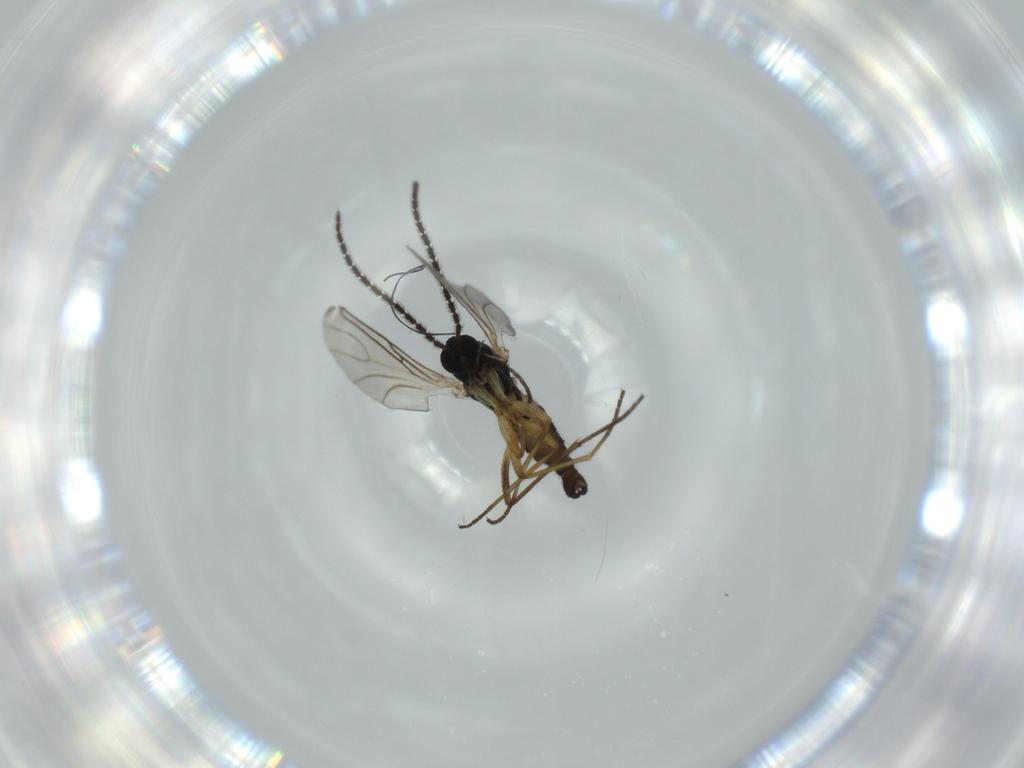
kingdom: Animalia
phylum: Arthropoda
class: Insecta
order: Diptera
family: Sciaridae
